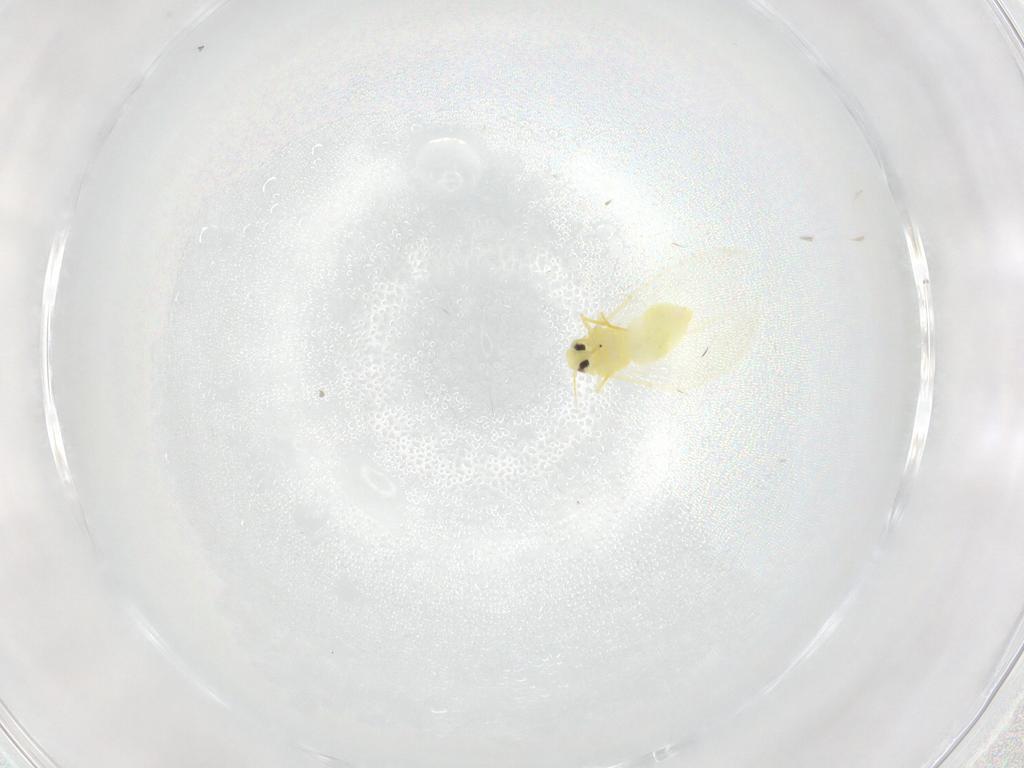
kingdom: Animalia
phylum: Arthropoda
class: Insecta
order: Hemiptera
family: Aleyrodidae
